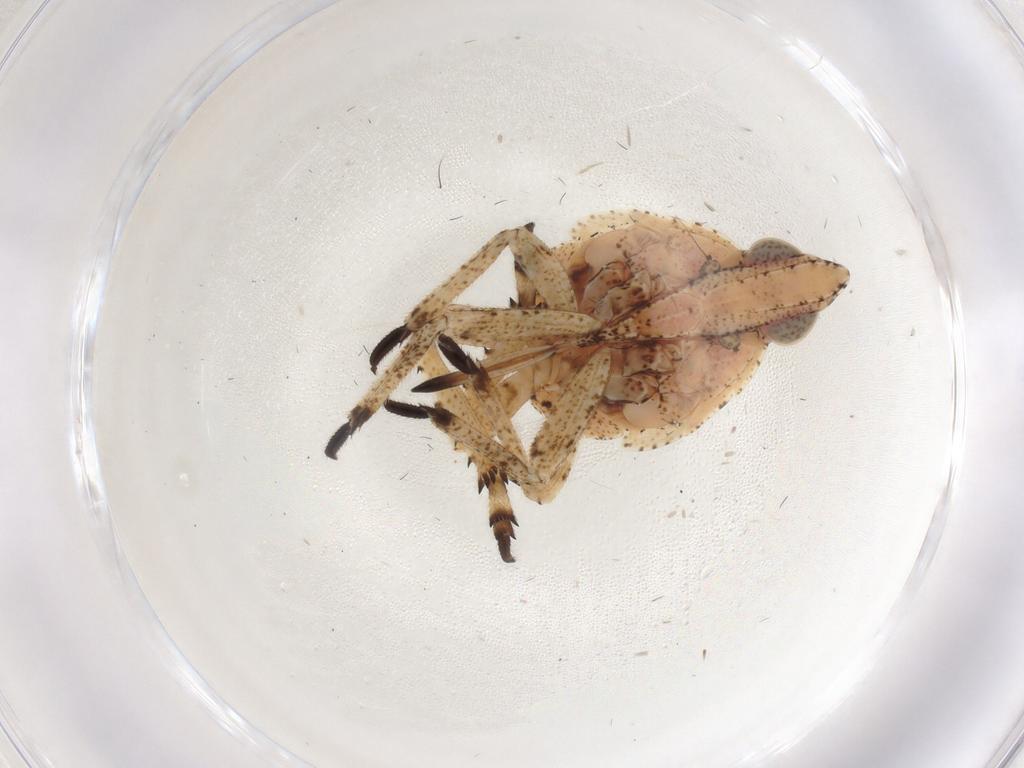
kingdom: Animalia
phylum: Arthropoda
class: Insecta
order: Hemiptera
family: Dictyopharidae
